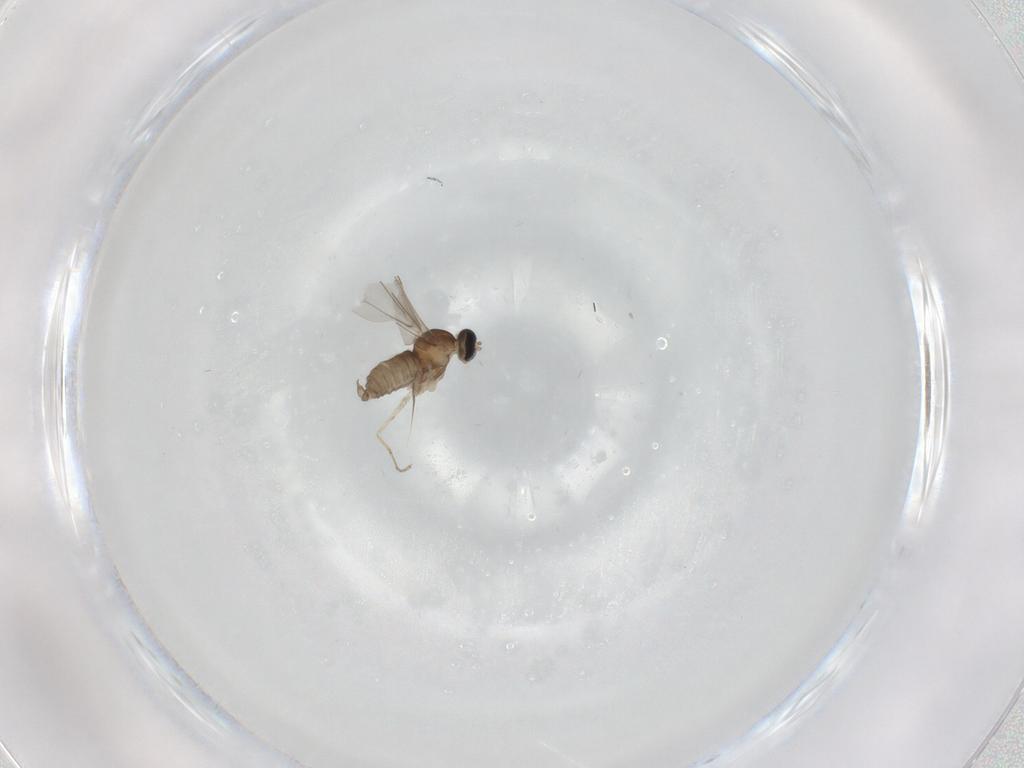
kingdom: Animalia
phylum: Arthropoda
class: Insecta
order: Diptera
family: Cecidomyiidae
